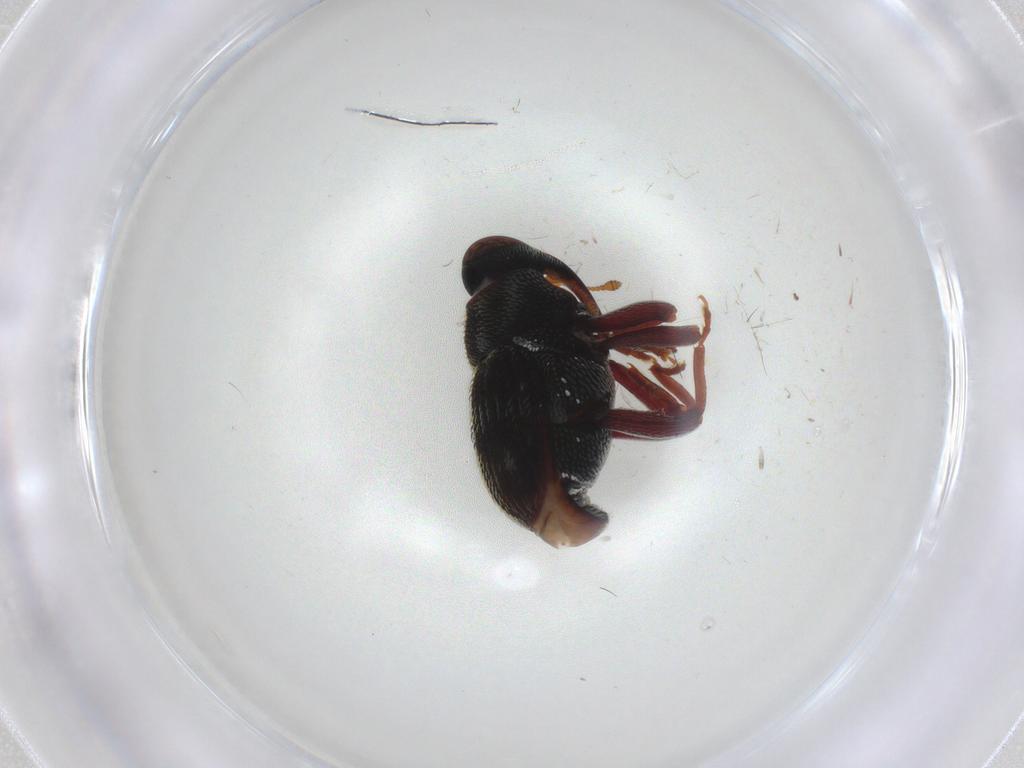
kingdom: Animalia
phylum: Arthropoda
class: Insecta
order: Coleoptera
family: Curculionidae
